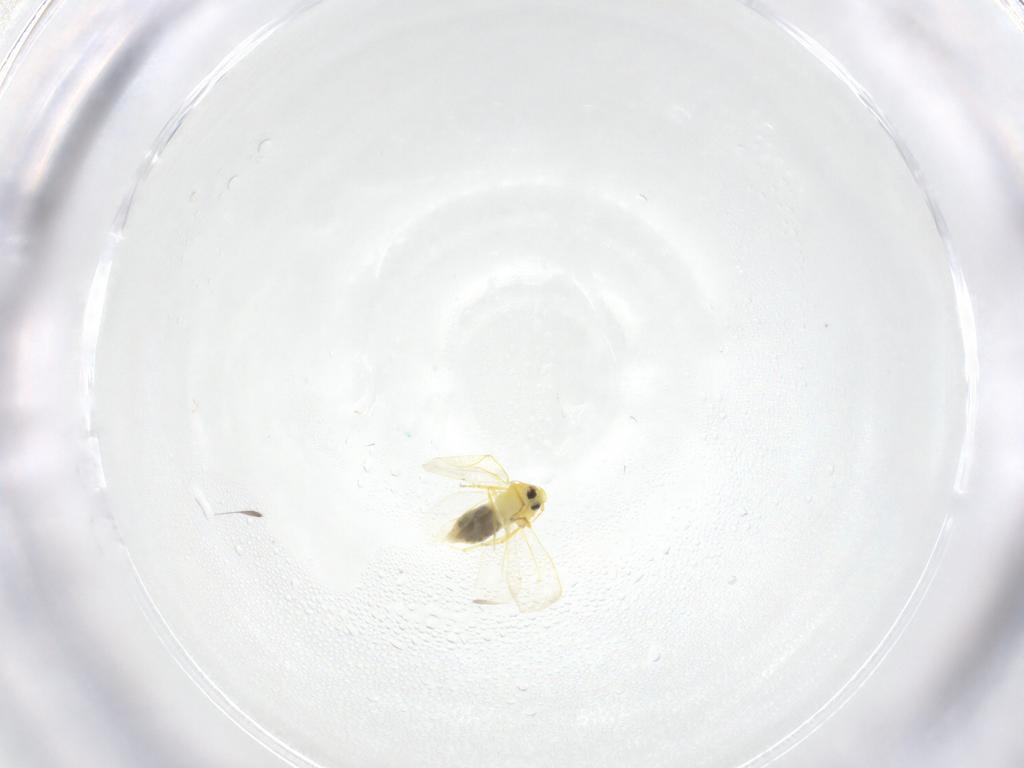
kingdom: Animalia
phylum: Arthropoda
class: Insecta
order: Hemiptera
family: Aleyrodidae
